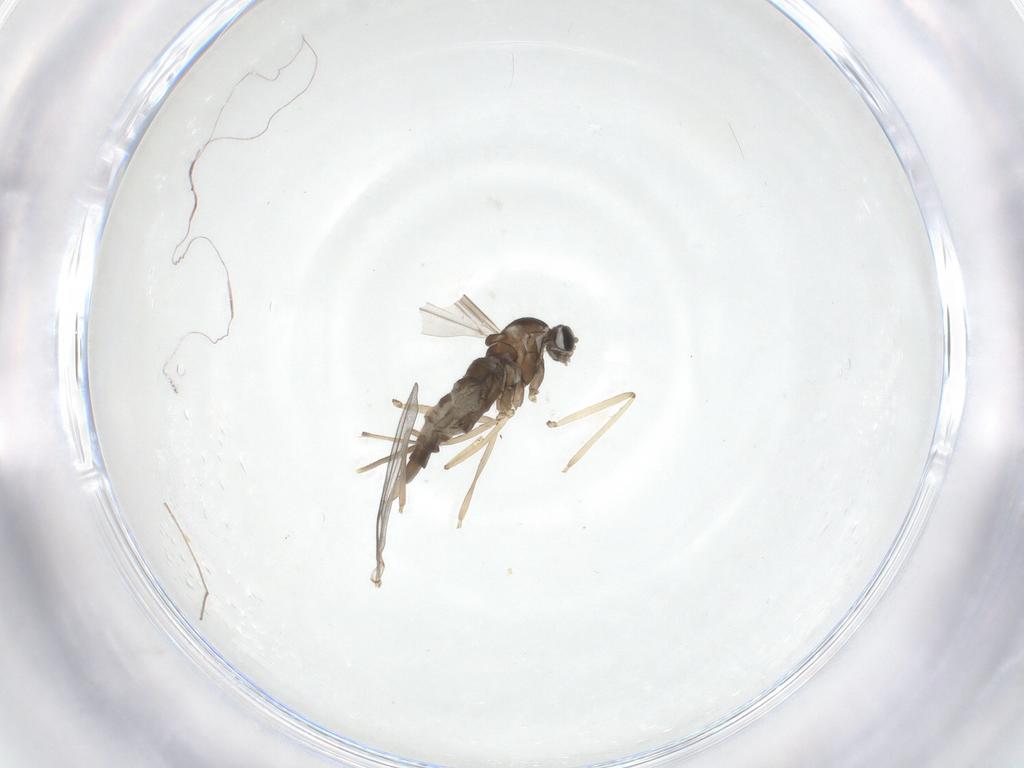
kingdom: Animalia
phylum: Arthropoda
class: Insecta
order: Diptera
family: Cecidomyiidae
